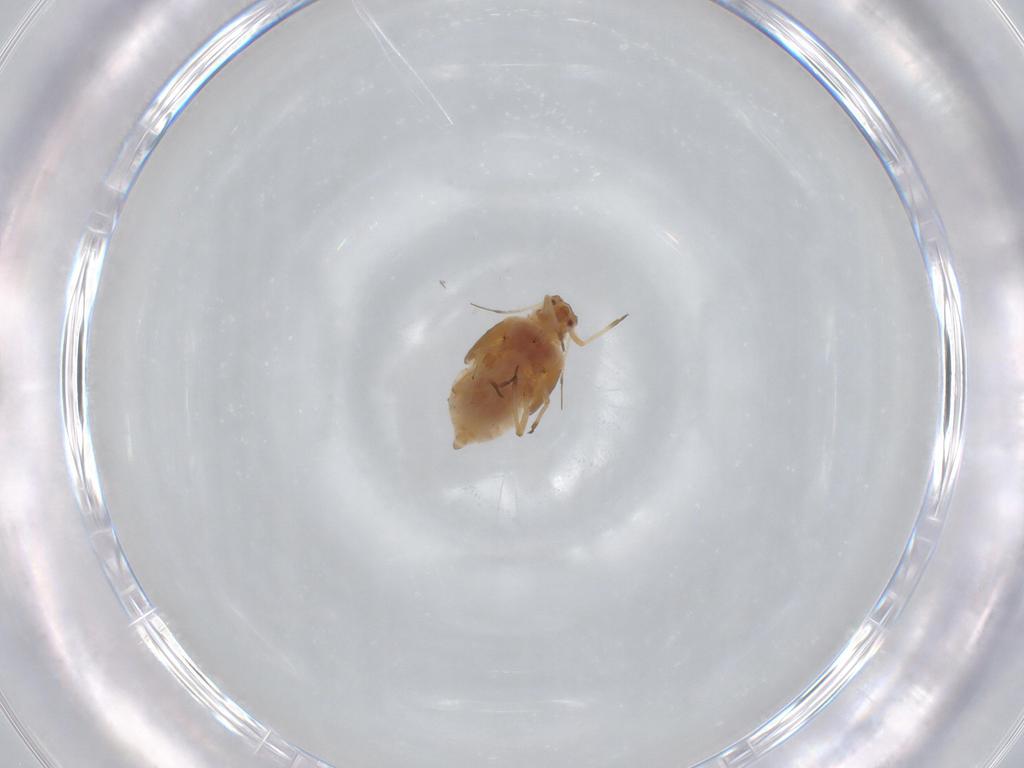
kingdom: Animalia
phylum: Arthropoda
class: Insecta
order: Hemiptera
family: Aphididae
